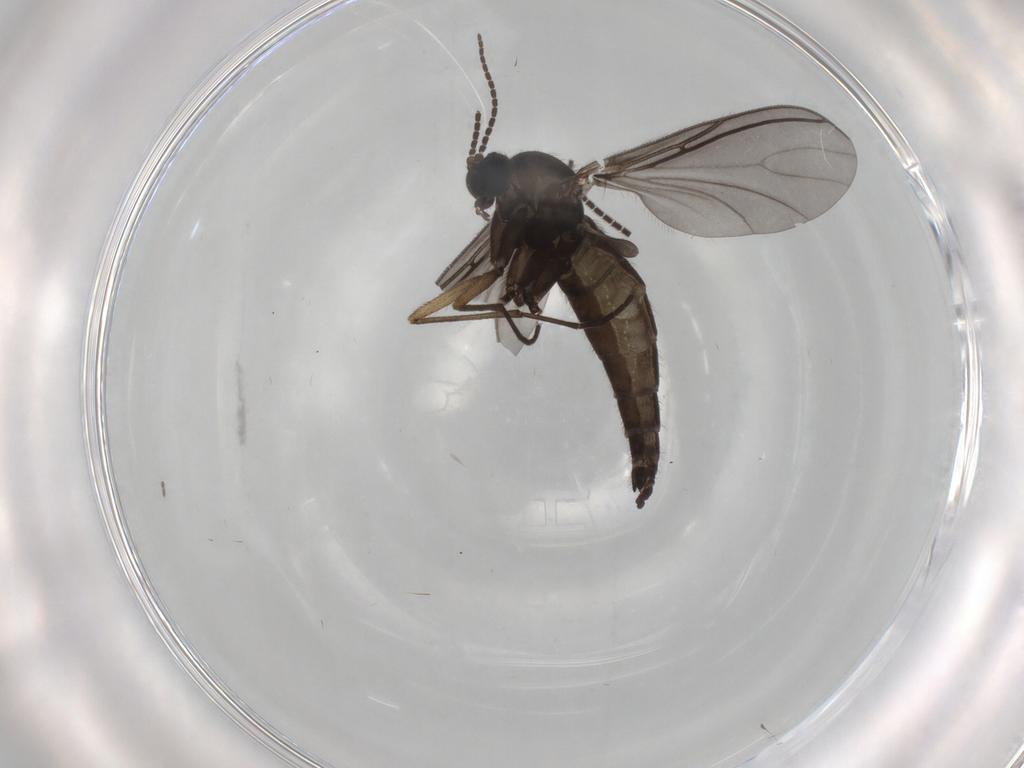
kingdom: Animalia
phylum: Arthropoda
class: Insecta
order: Diptera
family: Sciaridae
